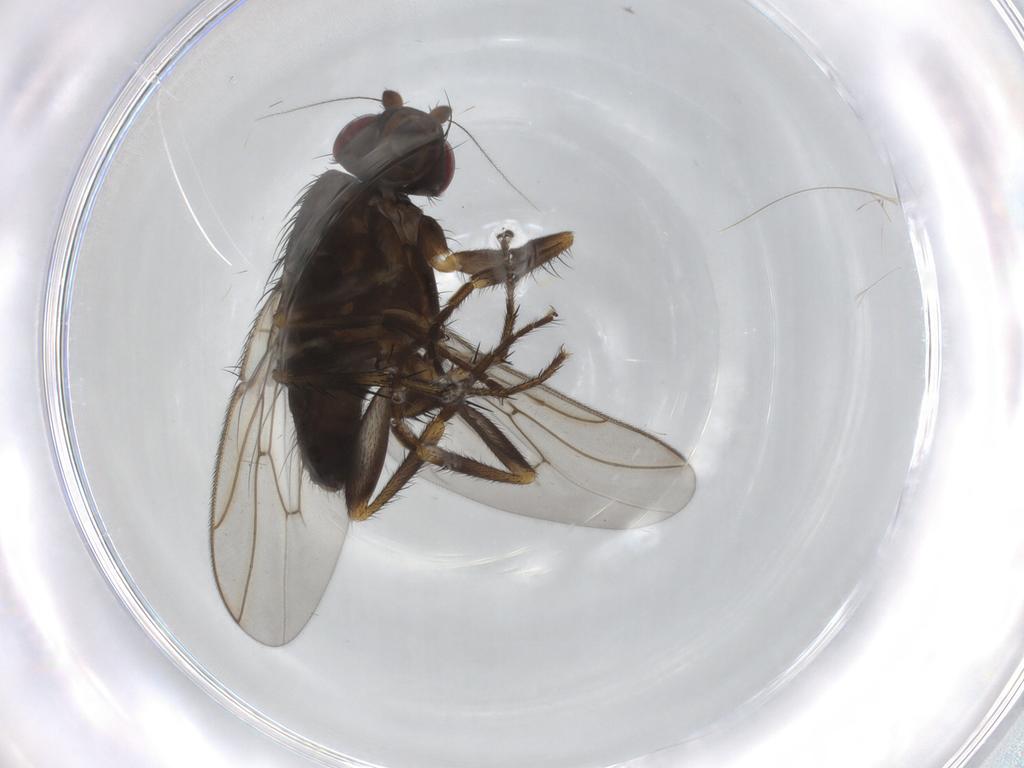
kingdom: Animalia
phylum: Arthropoda
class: Insecta
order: Diptera
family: Sphaeroceridae
